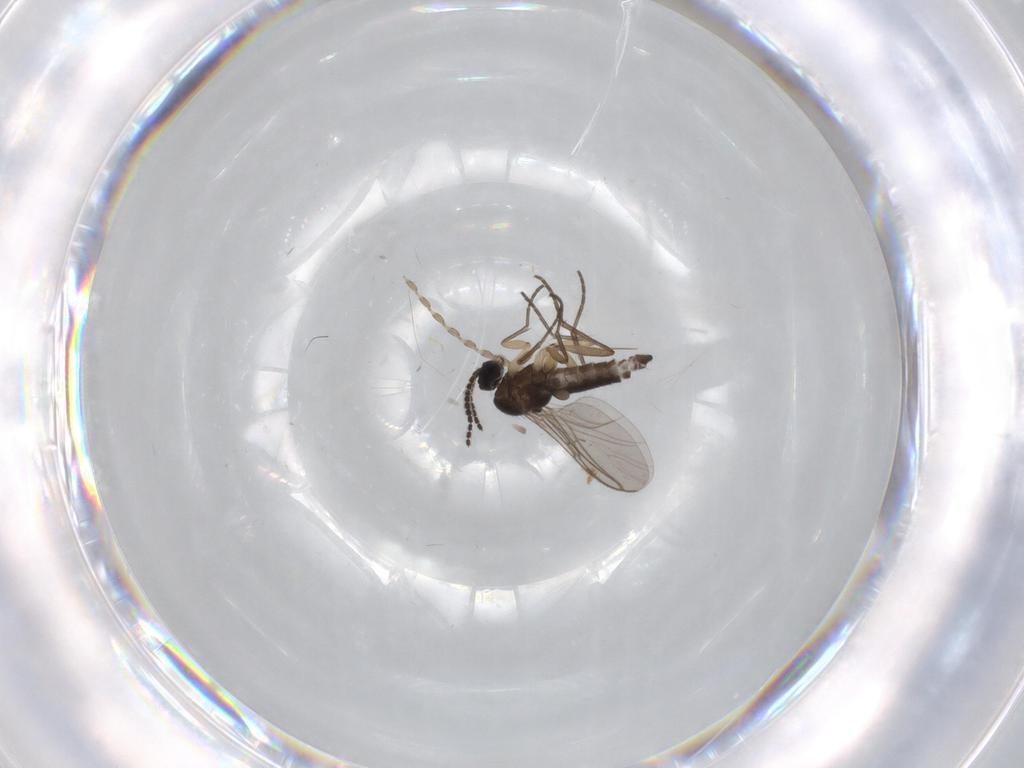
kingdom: Animalia
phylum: Arthropoda
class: Insecta
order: Diptera
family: Sciaridae
